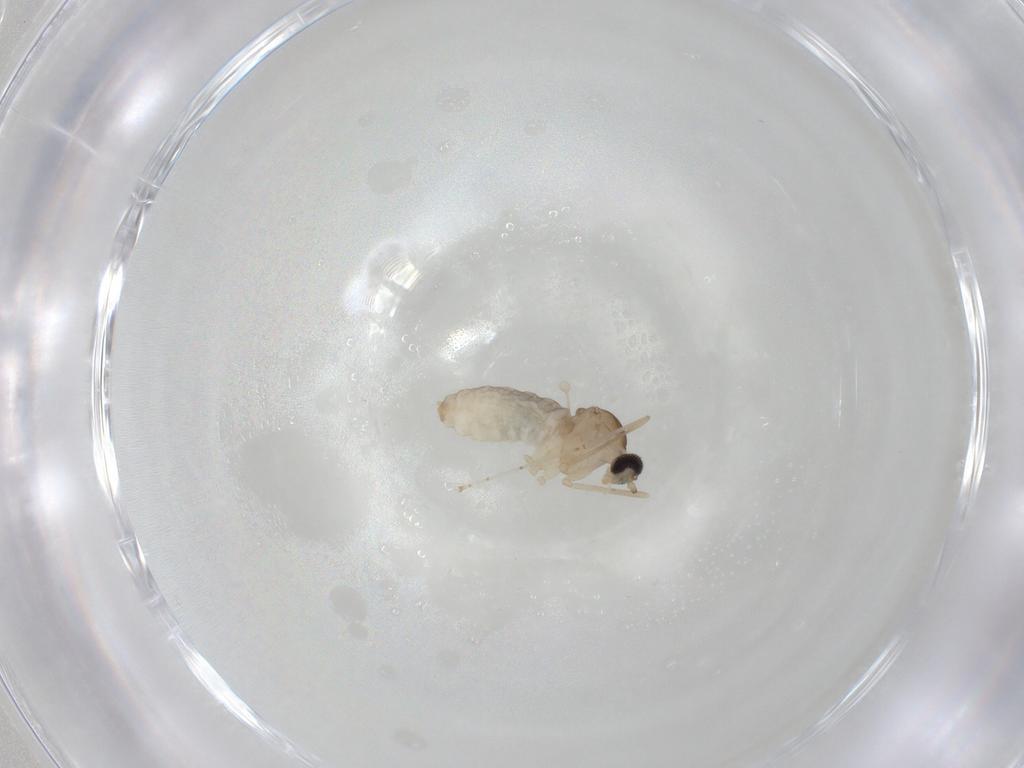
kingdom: Animalia
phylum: Arthropoda
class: Insecta
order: Diptera
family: Cecidomyiidae
